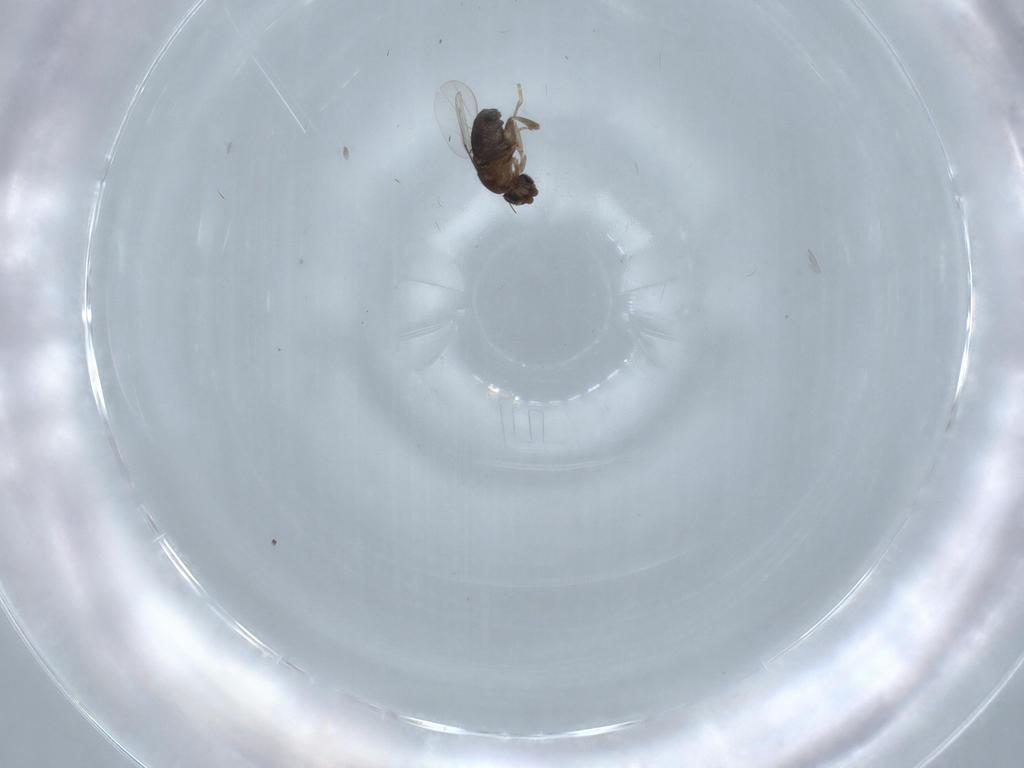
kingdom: Animalia
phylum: Arthropoda
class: Insecta
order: Diptera
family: Phoridae
